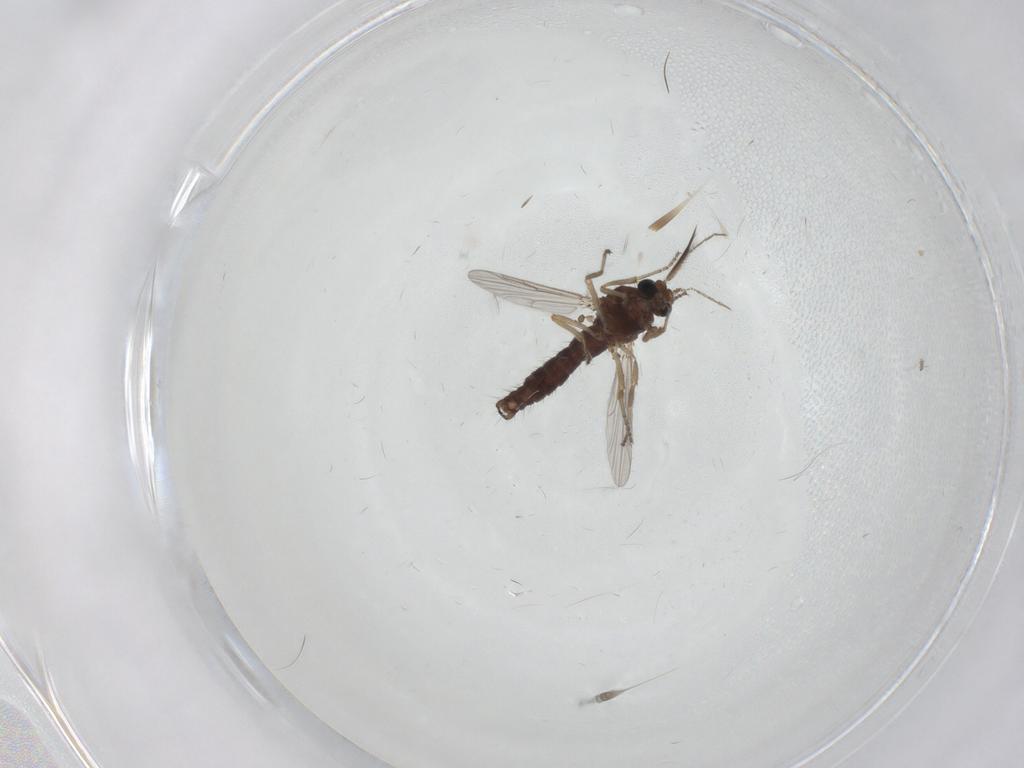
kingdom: Animalia
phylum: Arthropoda
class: Insecta
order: Diptera
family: Ceratopogonidae
